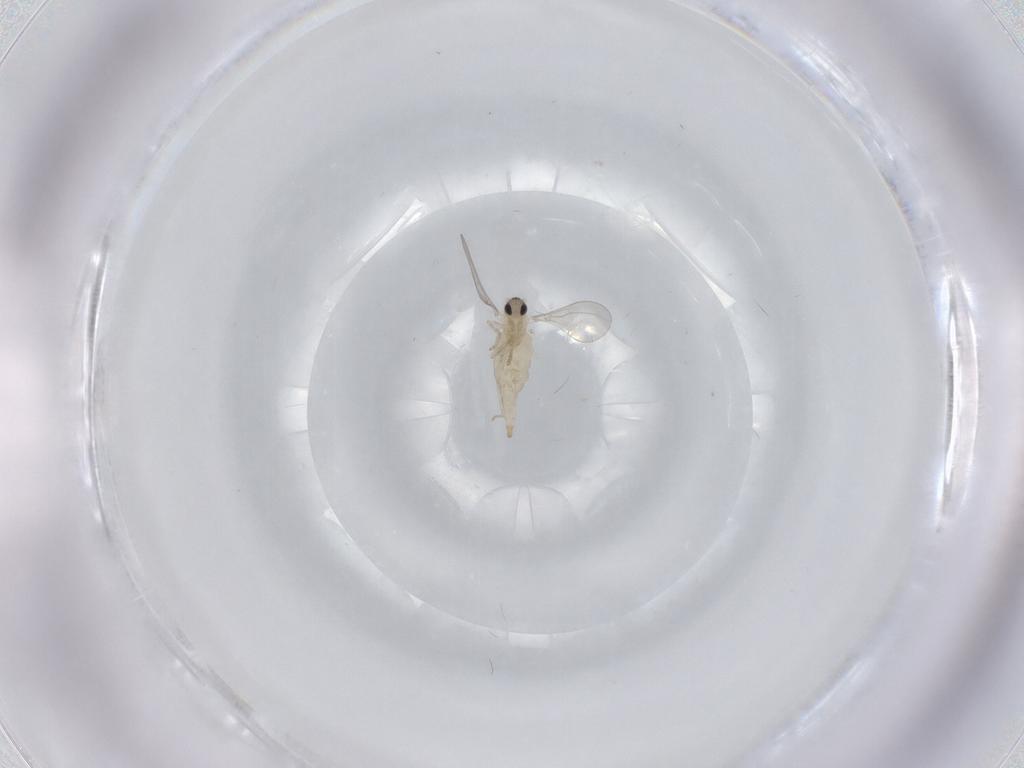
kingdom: Animalia
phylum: Arthropoda
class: Insecta
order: Diptera
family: Cecidomyiidae
